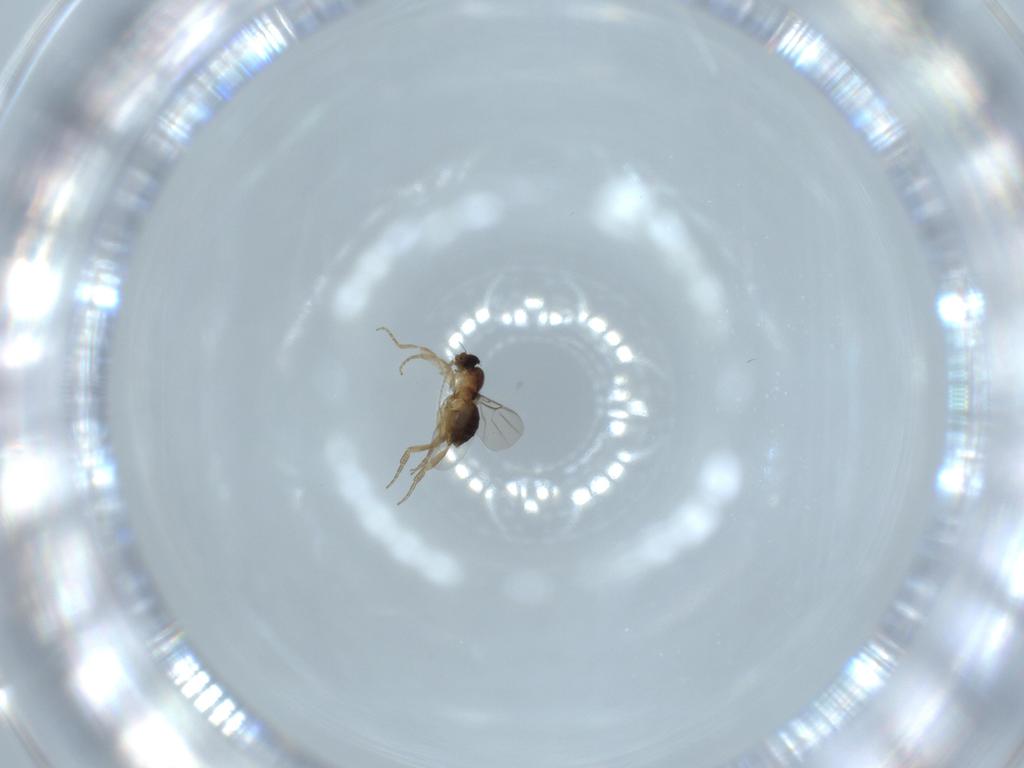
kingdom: Animalia
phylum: Arthropoda
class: Insecta
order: Diptera
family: Phoridae
